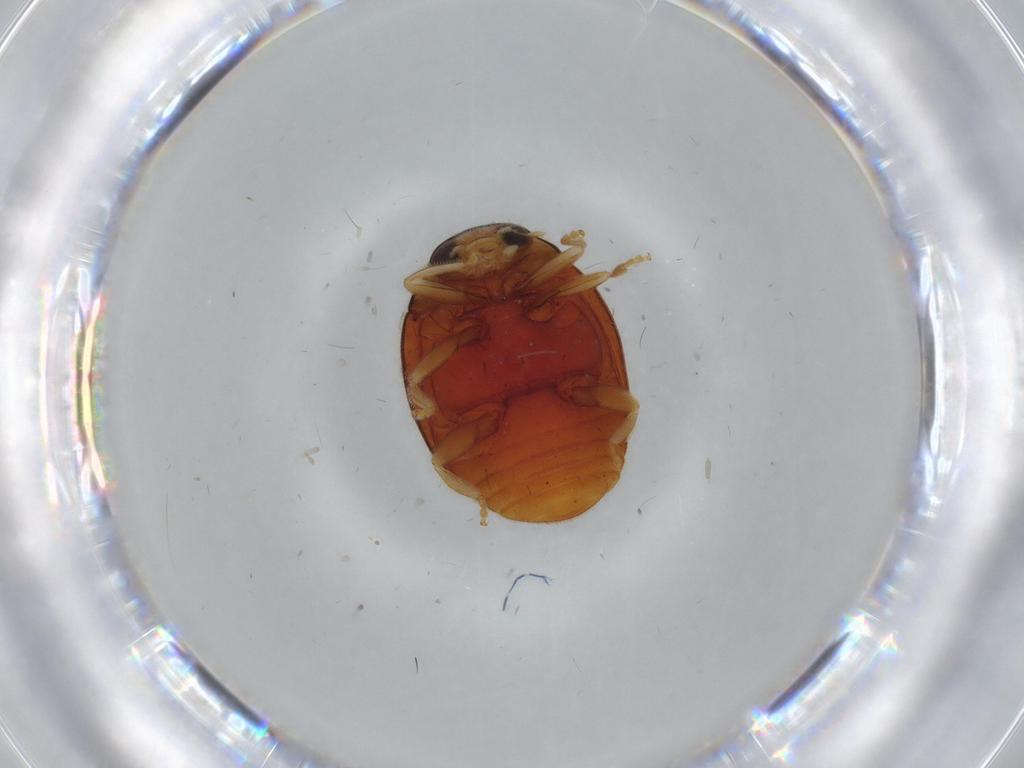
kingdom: Animalia
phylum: Arthropoda
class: Insecta
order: Coleoptera
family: Coccinellidae
